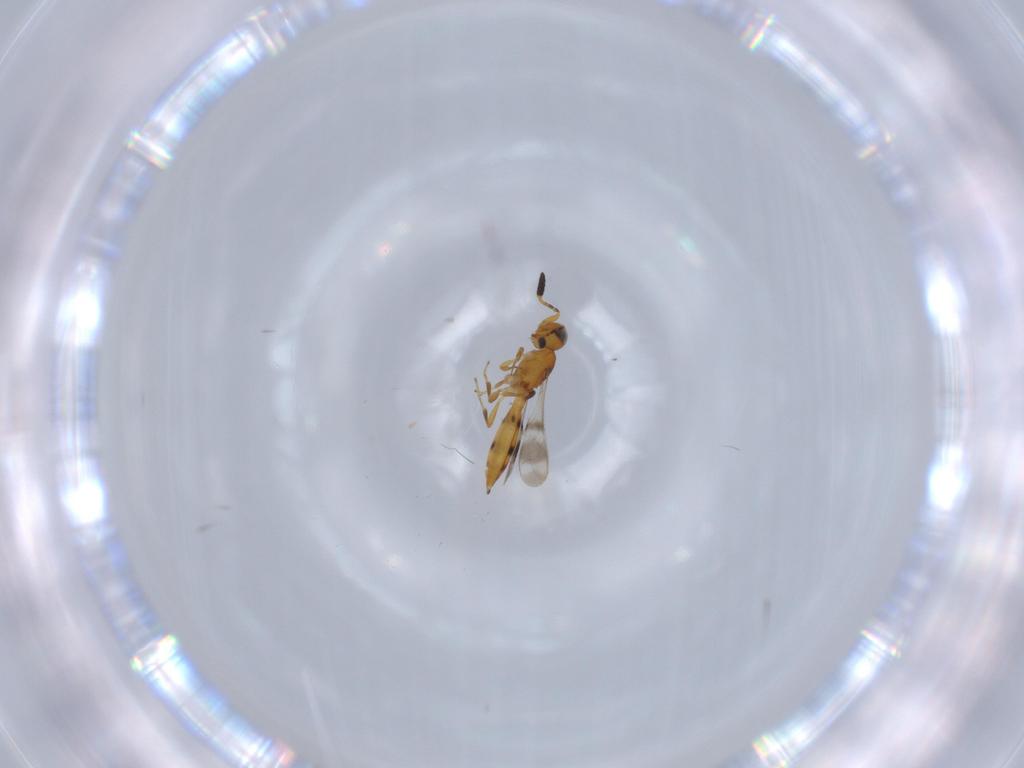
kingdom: Animalia
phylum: Arthropoda
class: Insecta
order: Hymenoptera
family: Scelionidae
